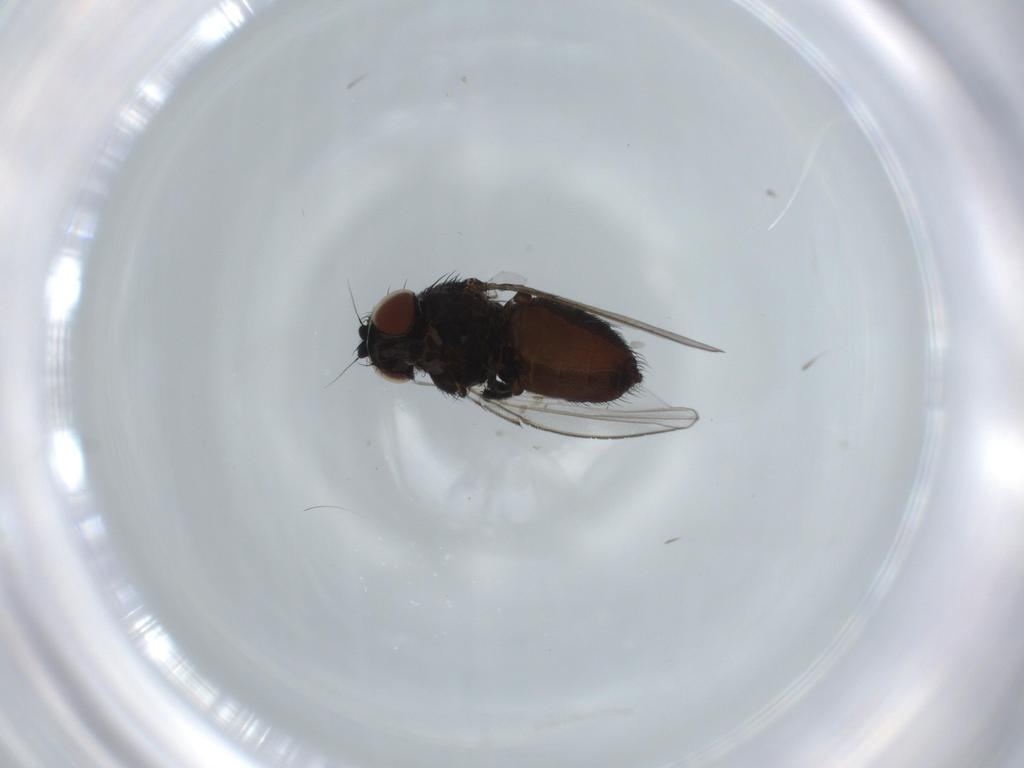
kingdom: Animalia
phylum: Arthropoda
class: Insecta
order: Diptera
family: Milichiidae
